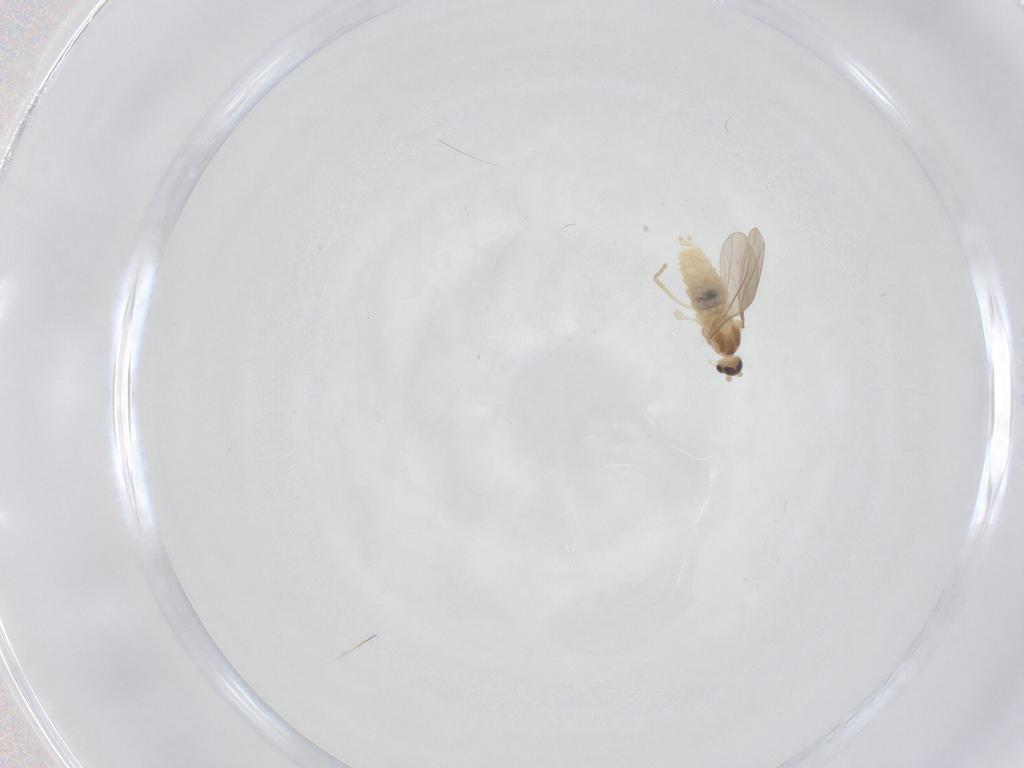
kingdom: Animalia
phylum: Arthropoda
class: Insecta
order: Diptera
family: Cecidomyiidae
